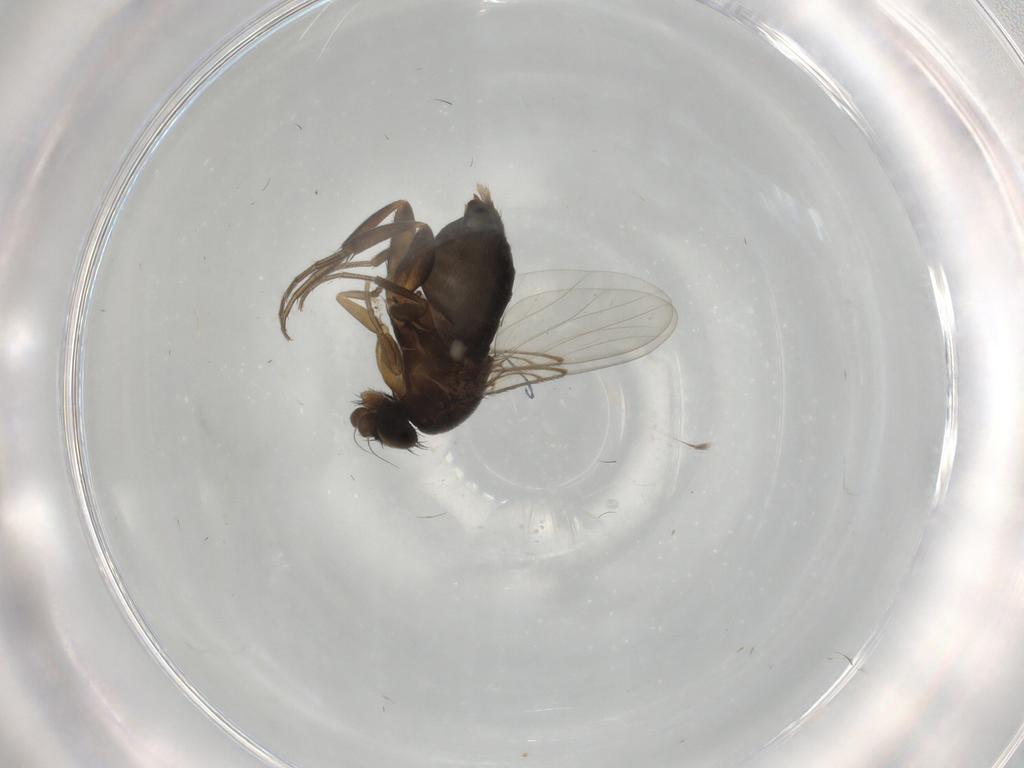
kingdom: Animalia
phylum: Arthropoda
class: Insecta
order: Diptera
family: Phoridae
